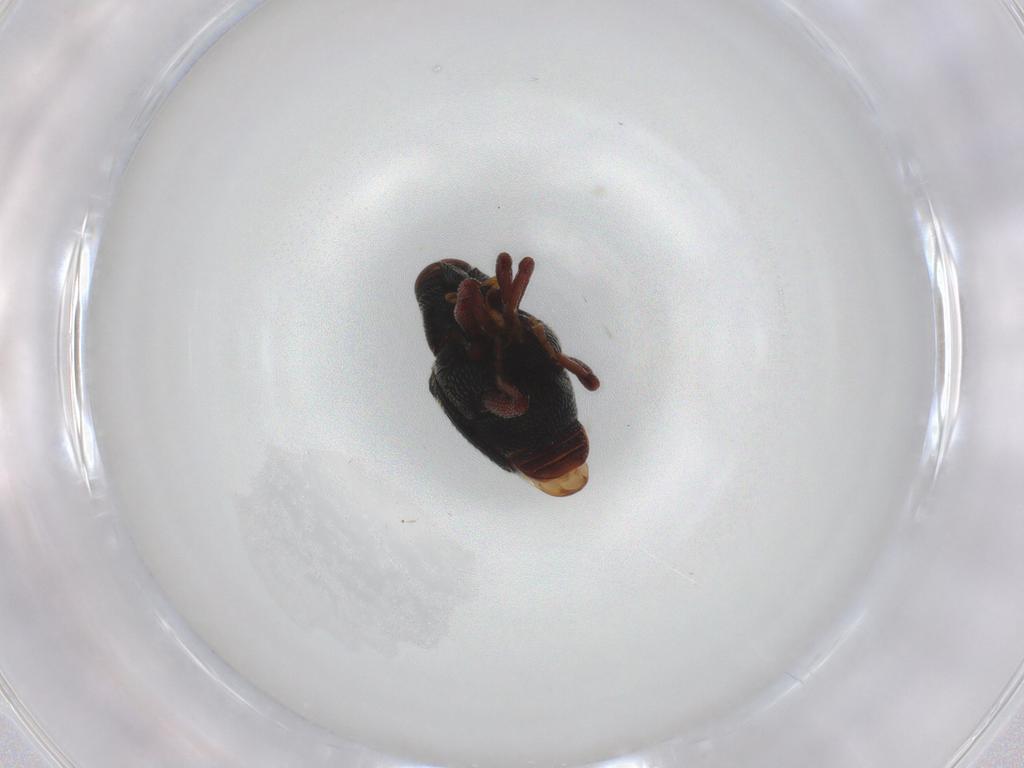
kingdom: Animalia
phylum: Arthropoda
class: Insecta
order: Coleoptera
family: Curculionidae
